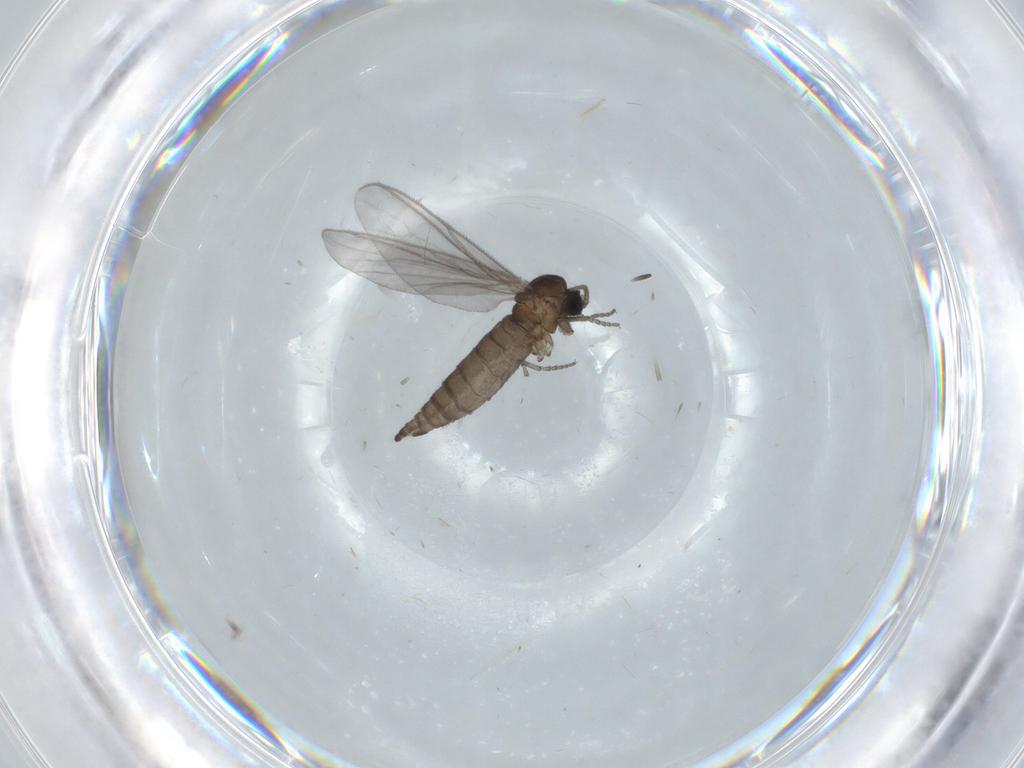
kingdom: Animalia
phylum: Arthropoda
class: Insecta
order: Diptera
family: Sciaridae
